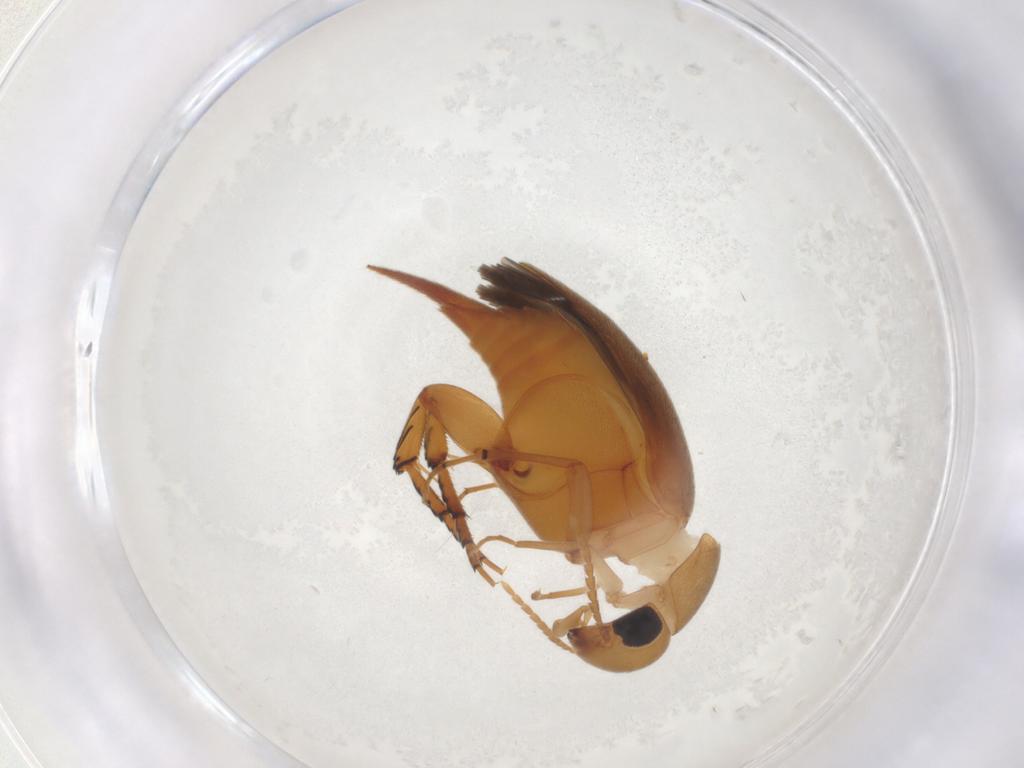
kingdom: Animalia
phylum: Arthropoda
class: Insecta
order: Coleoptera
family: Mordellidae
